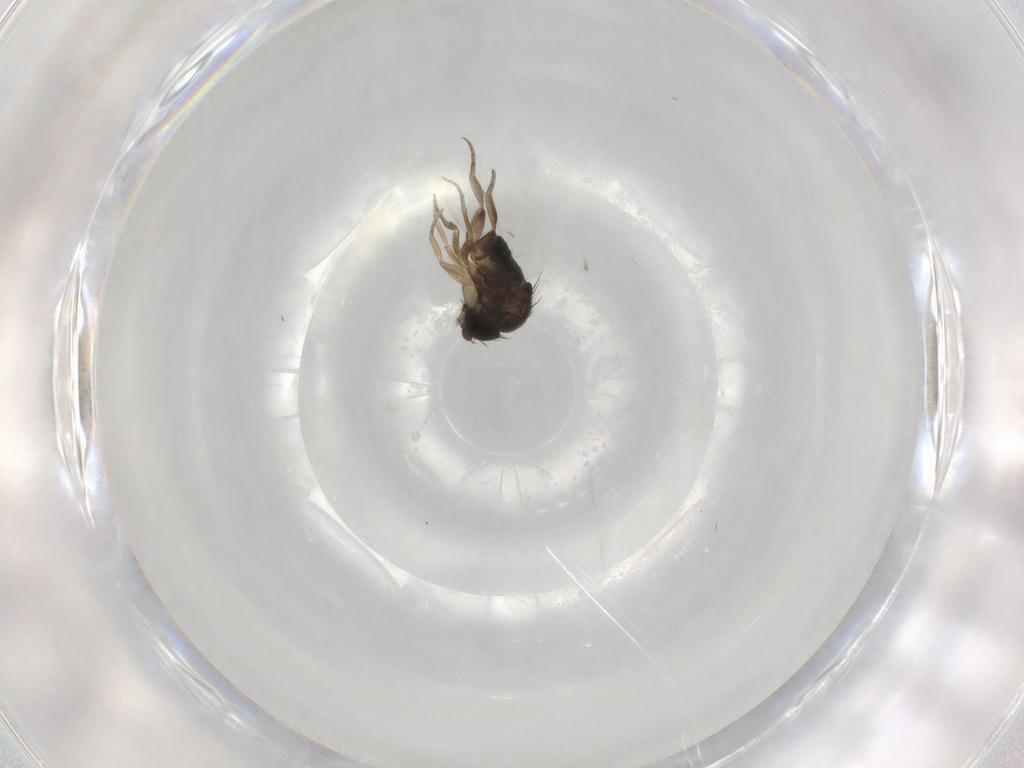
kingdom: Animalia
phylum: Arthropoda
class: Insecta
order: Diptera
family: Phoridae
